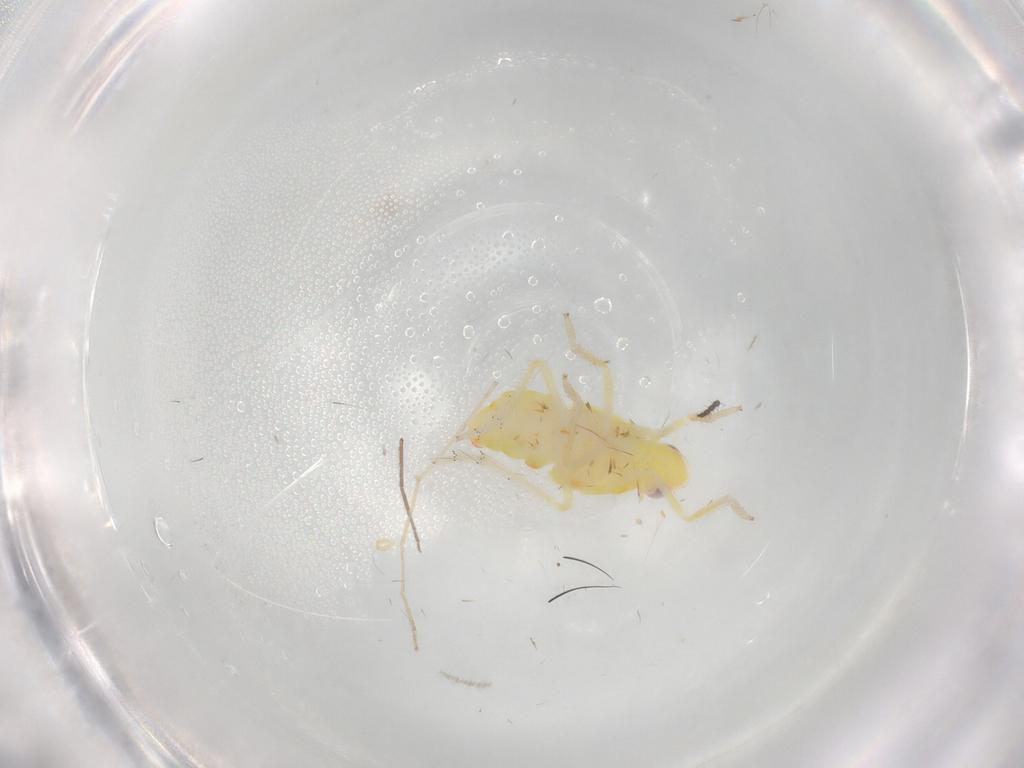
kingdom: Animalia
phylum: Arthropoda
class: Insecta
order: Hemiptera
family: Tropiduchidae
